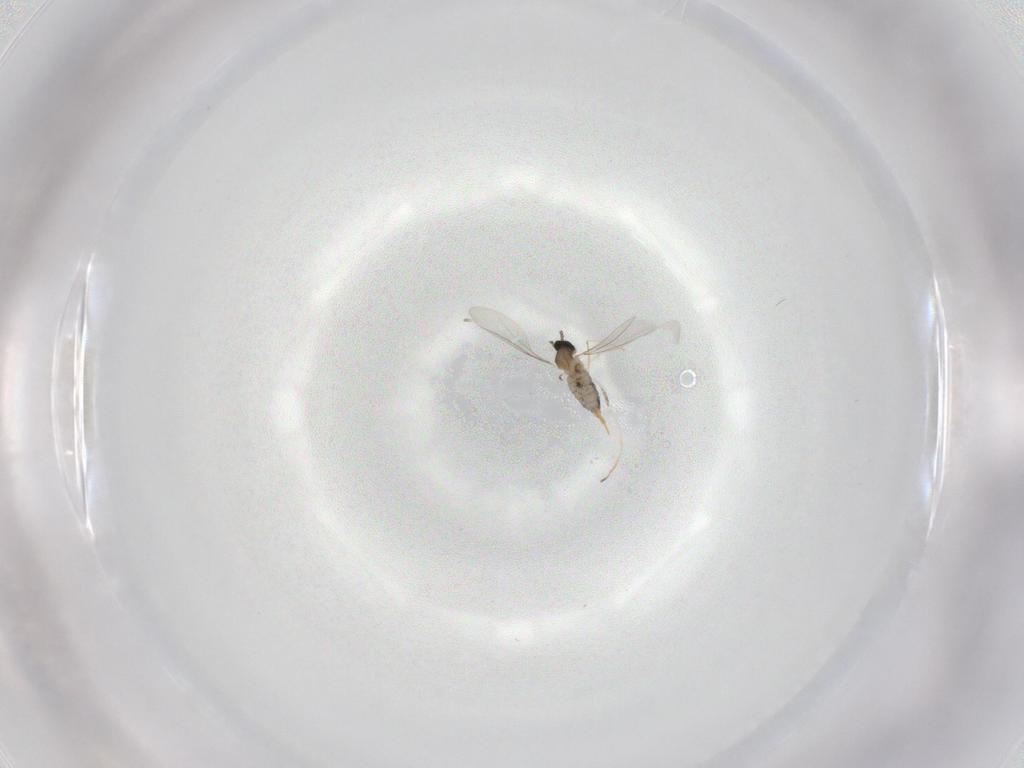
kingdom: Animalia
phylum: Arthropoda
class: Insecta
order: Diptera
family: Cecidomyiidae
